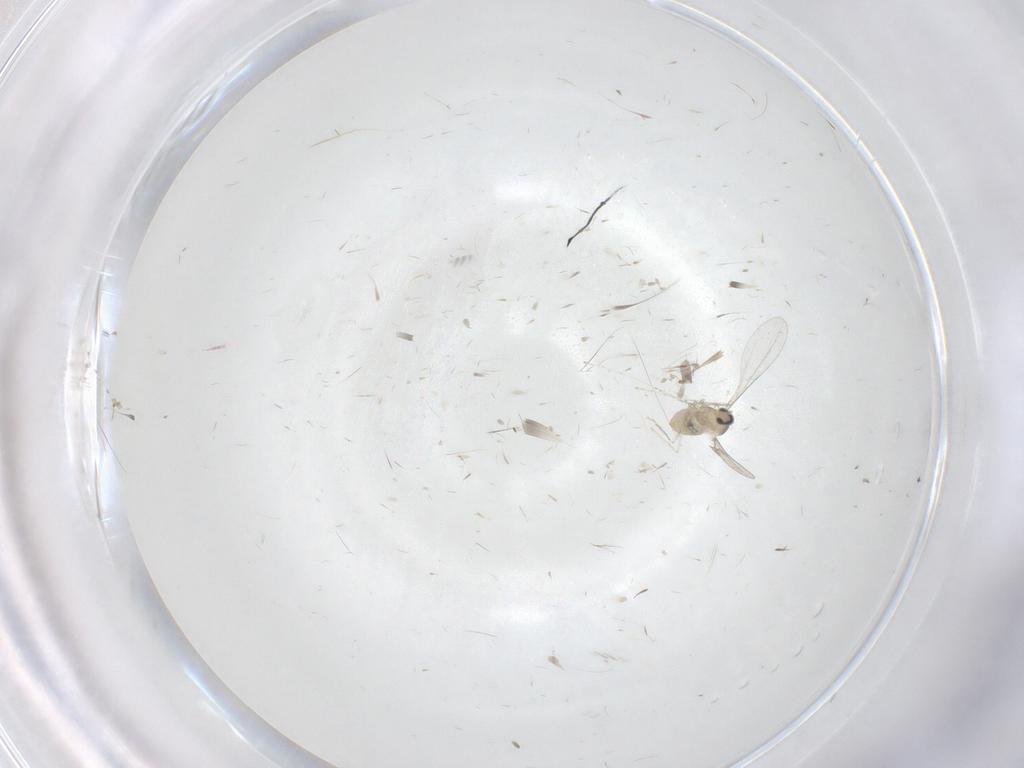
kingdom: Animalia
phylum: Arthropoda
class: Insecta
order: Diptera
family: Cecidomyiidae
